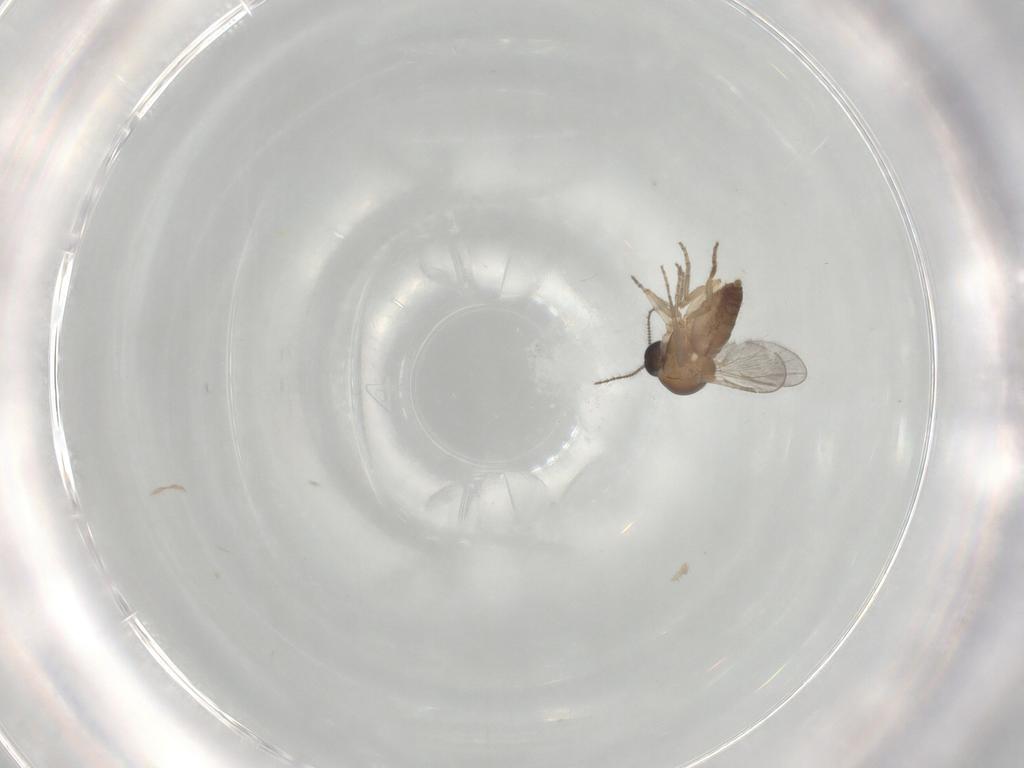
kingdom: Animalia
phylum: Arthropoda
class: Insecta
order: Diptera
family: Ceratopogonidae
